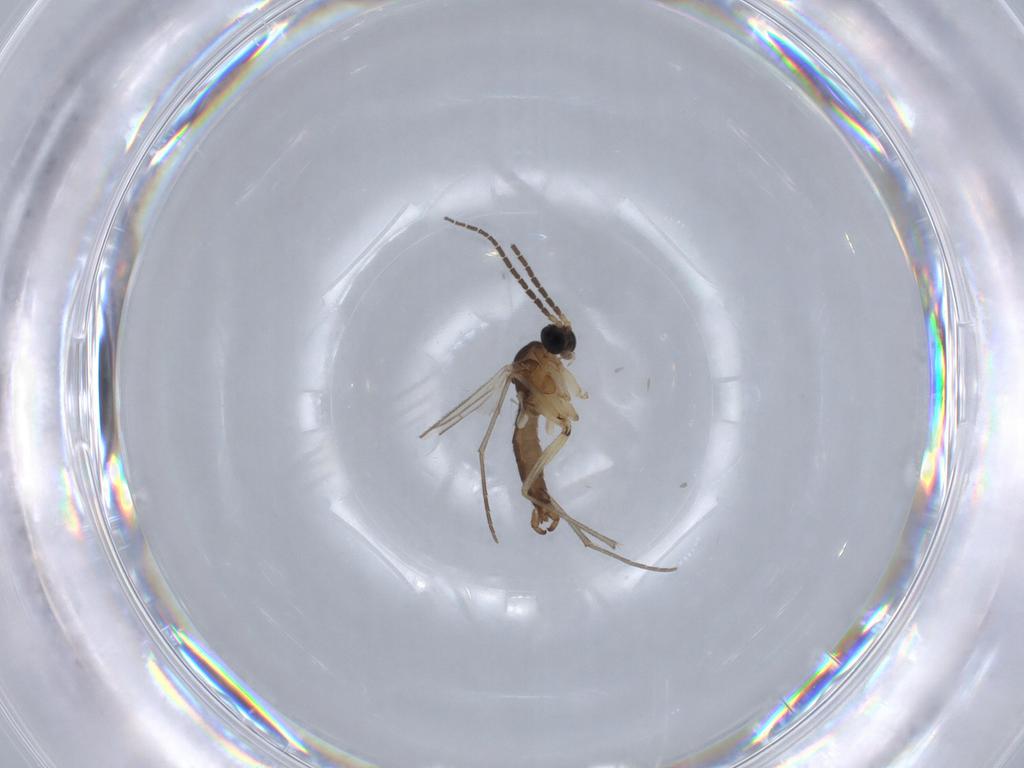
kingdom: Animalia
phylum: Arthropoda
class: Insecta
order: Diptera
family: Sciaridae
